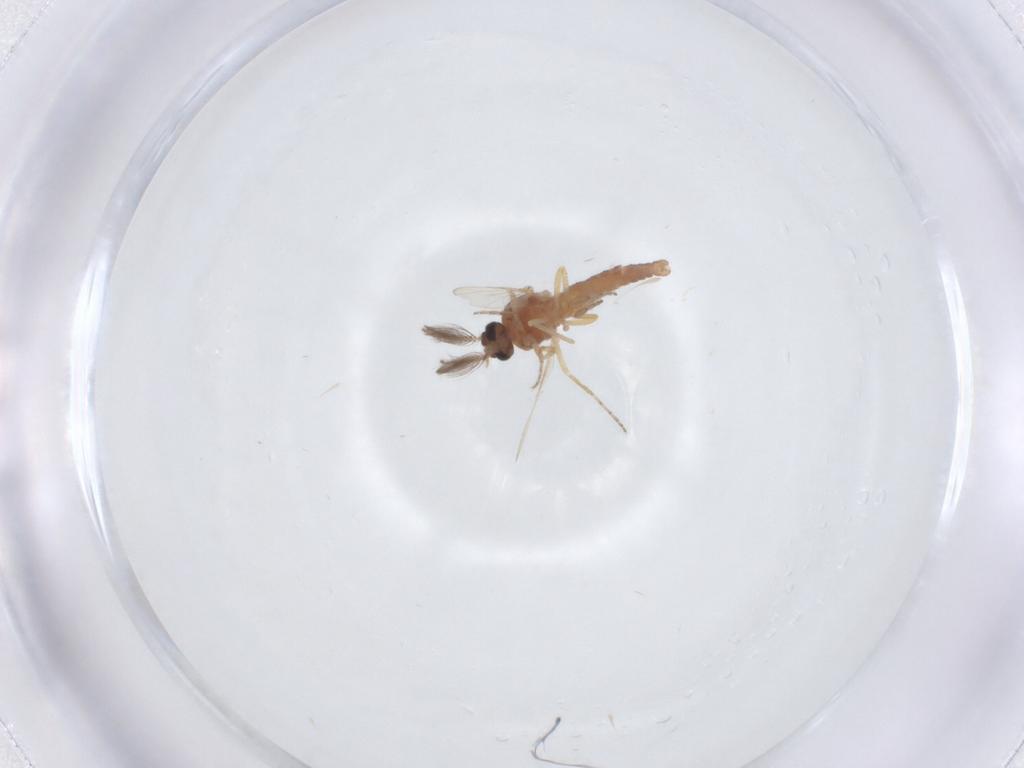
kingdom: Animalia
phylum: Arthropoda
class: Insecta
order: Diptera
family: Ceratopogonidae
